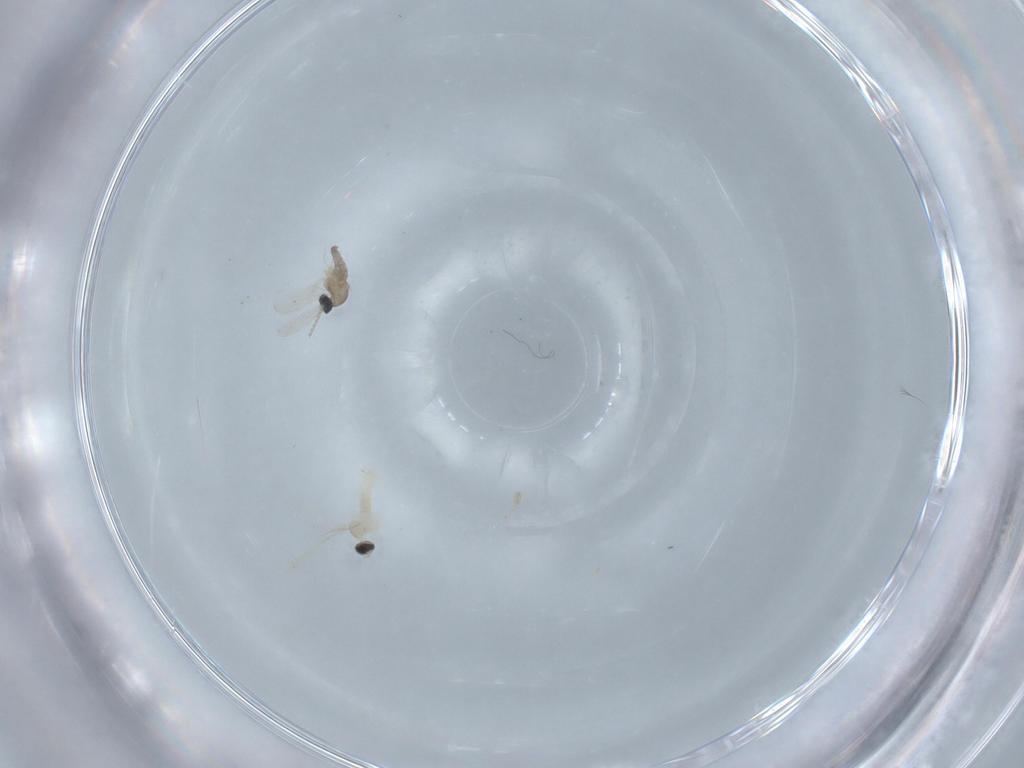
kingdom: Animalia
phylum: Arthropoda
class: Insecta
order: Diptera
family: Cecidomyiidae
